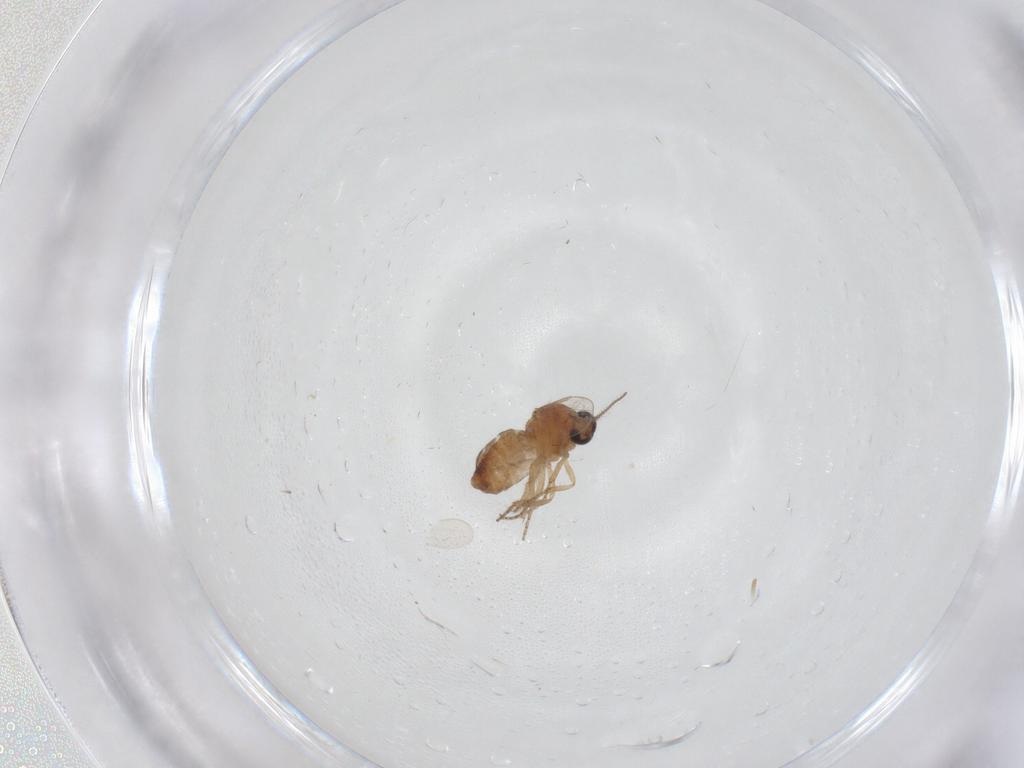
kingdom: Animalia
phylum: Arthropoda
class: Insecta
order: Diptera
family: Ceratopogonidae
